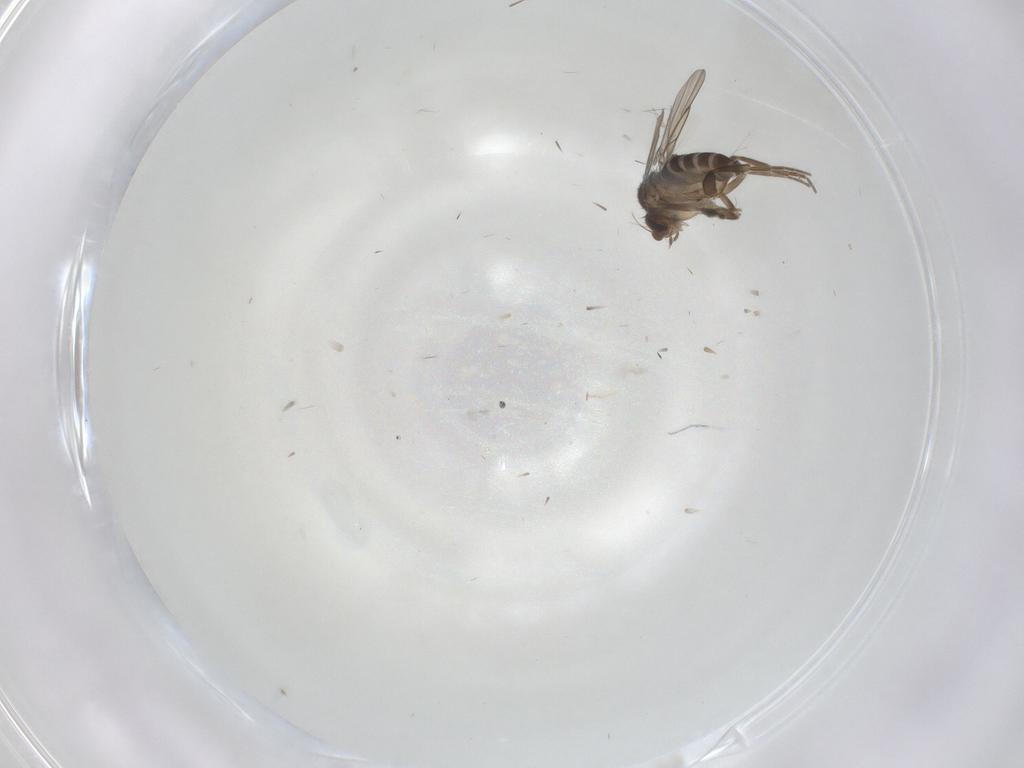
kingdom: Animalia
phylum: Arthropoda
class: Insecta
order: Diptera
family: Cecidomyiidae
